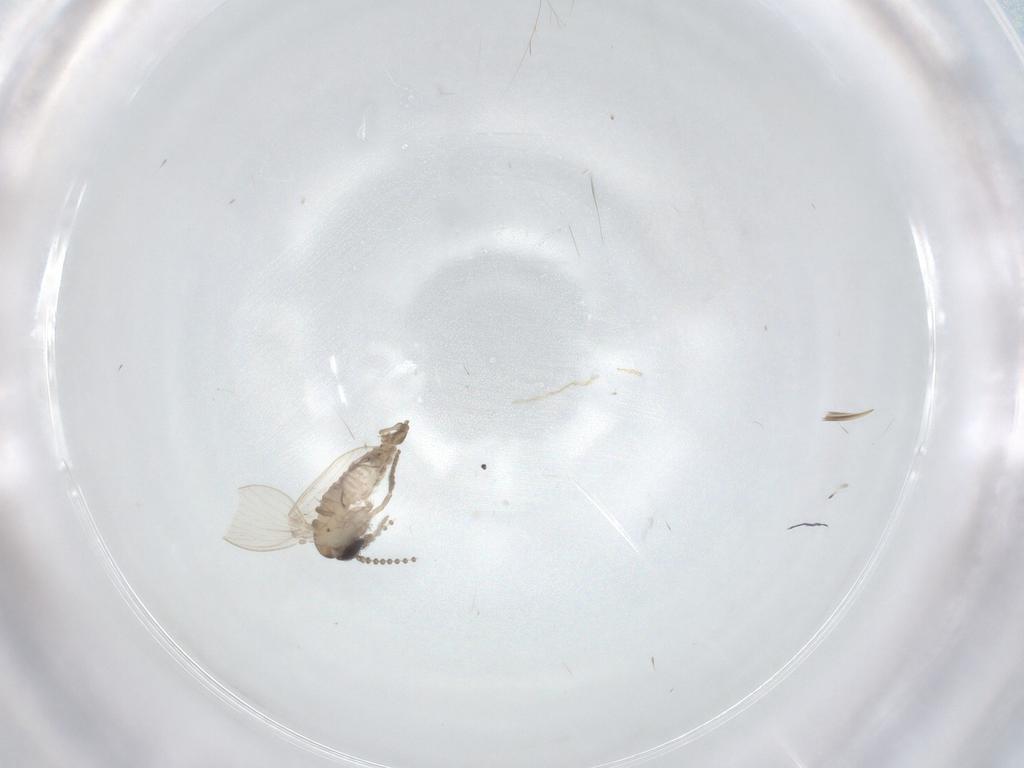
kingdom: Animalia
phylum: Arthropoda
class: Insecta
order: Diptera
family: Psychodidae
